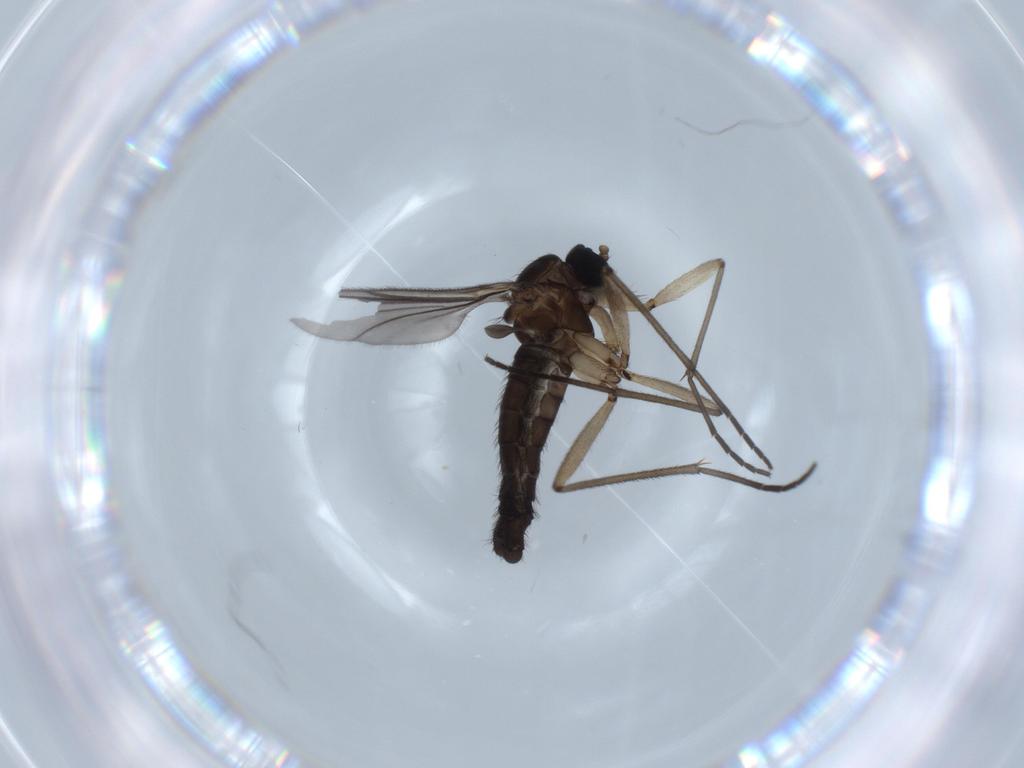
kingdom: Animalia
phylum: Arthropoda
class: Insecta
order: Diptera
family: Sciaridae
